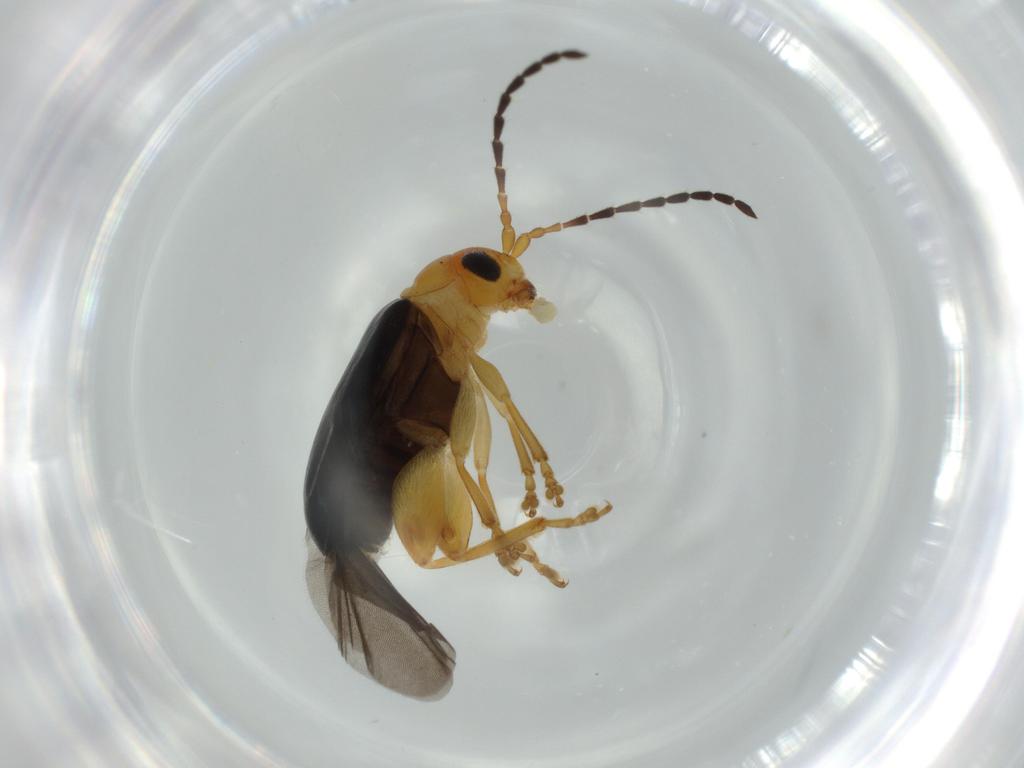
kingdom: Animalia
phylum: Arthropoda
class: Insecta
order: Coleoptera
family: Chrysomelidae
